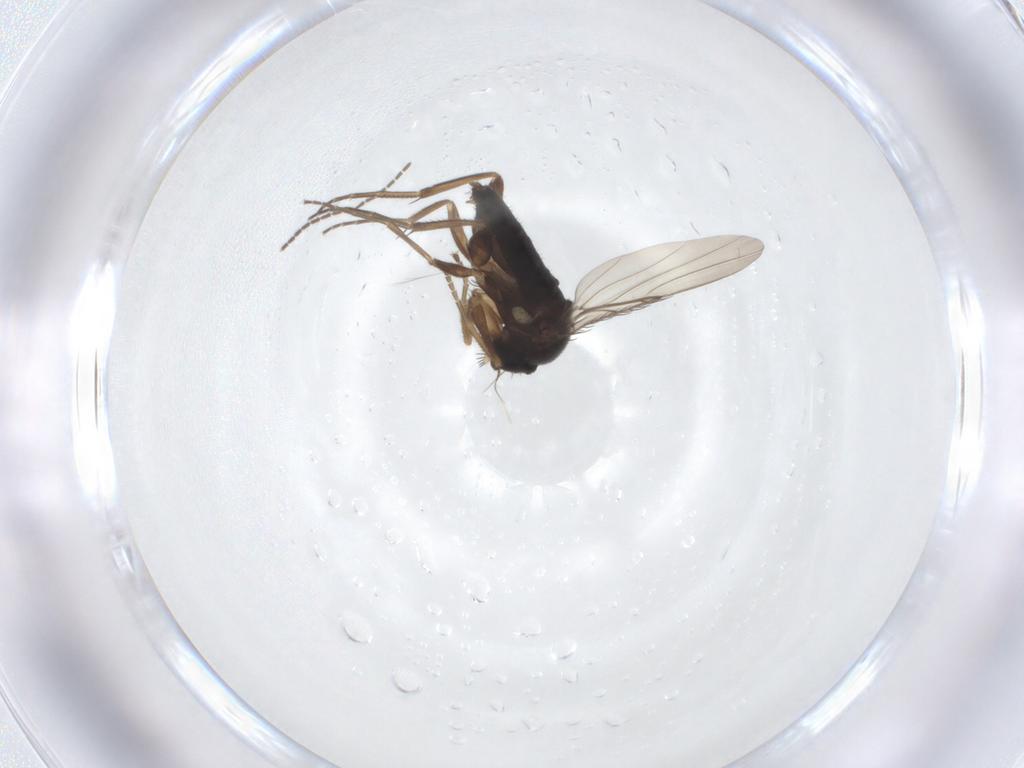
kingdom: Animalia
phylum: Arthropoda
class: Insecta
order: Diptera
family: Phoridae
